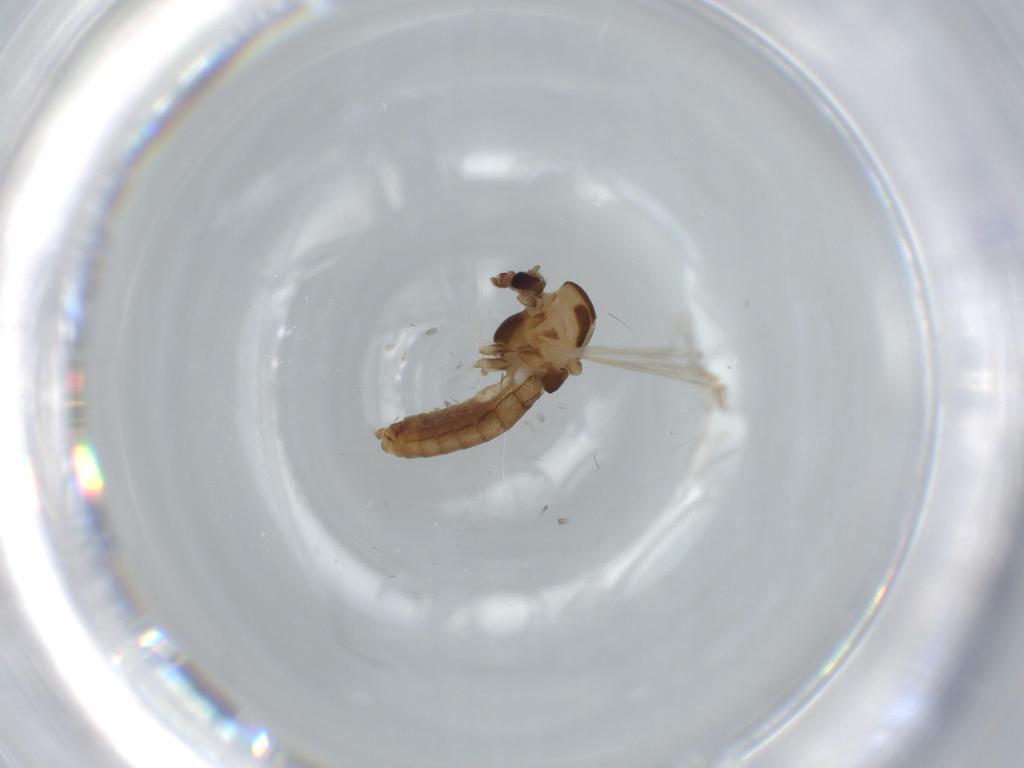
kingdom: Animalia
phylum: Arthropoda
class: Insecta
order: Diptera
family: Chironomidae
